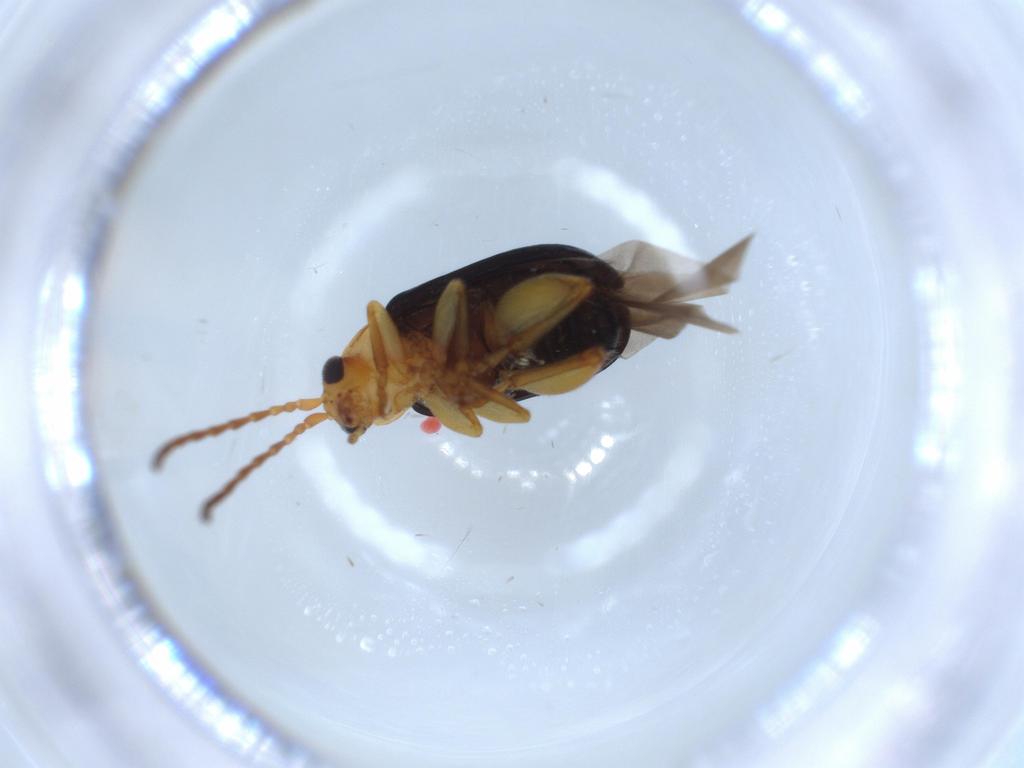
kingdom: Animalia
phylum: Arthropoda
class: Insecta
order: Coleoptera
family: Chrysomelidae
